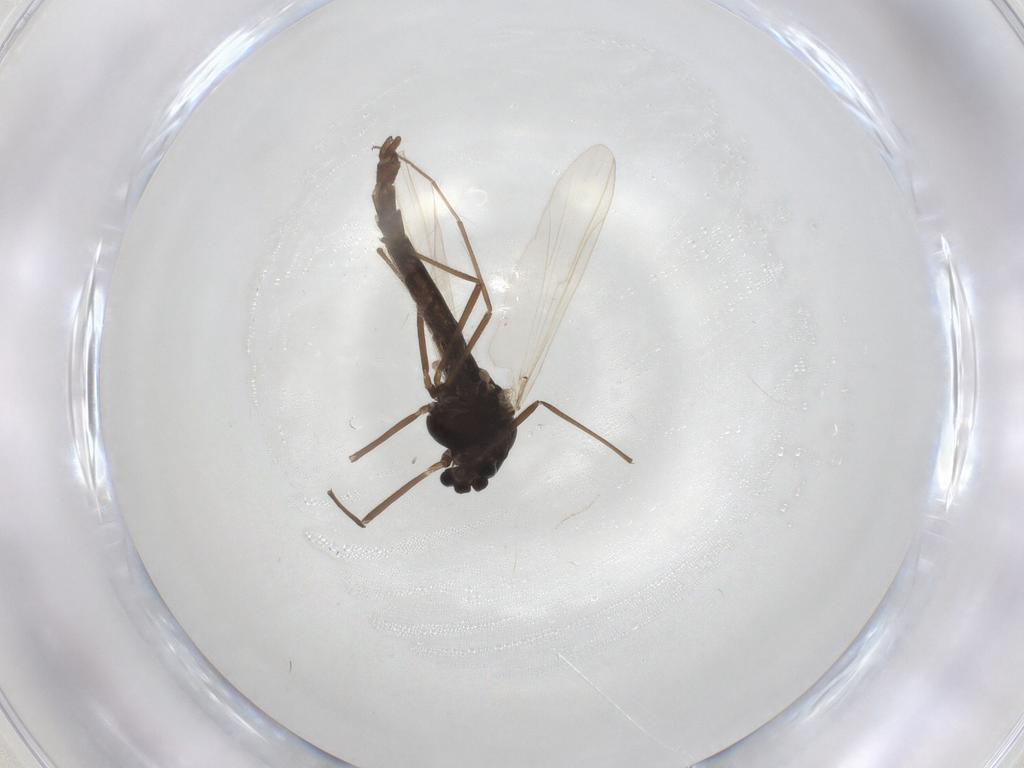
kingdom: Animalia
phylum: Arthropoda
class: Insecta
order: Diptera
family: Chironomidae
